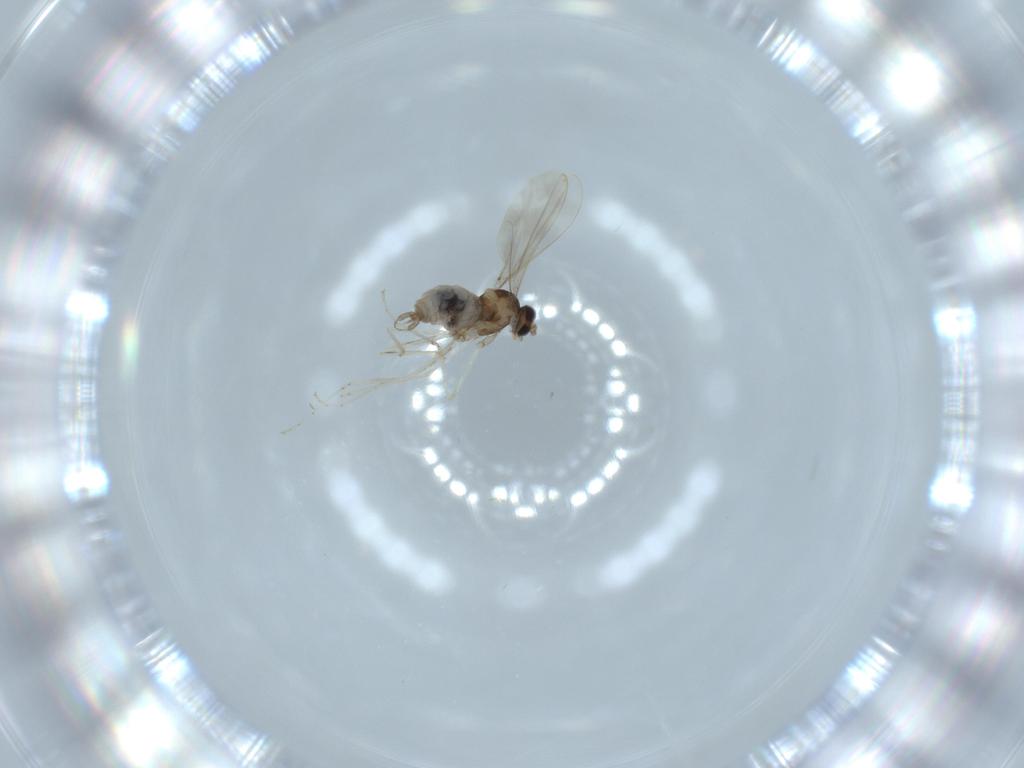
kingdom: Animalia
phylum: Arthropoda
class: Insecta
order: Diptera
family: Cecidomyiidae
